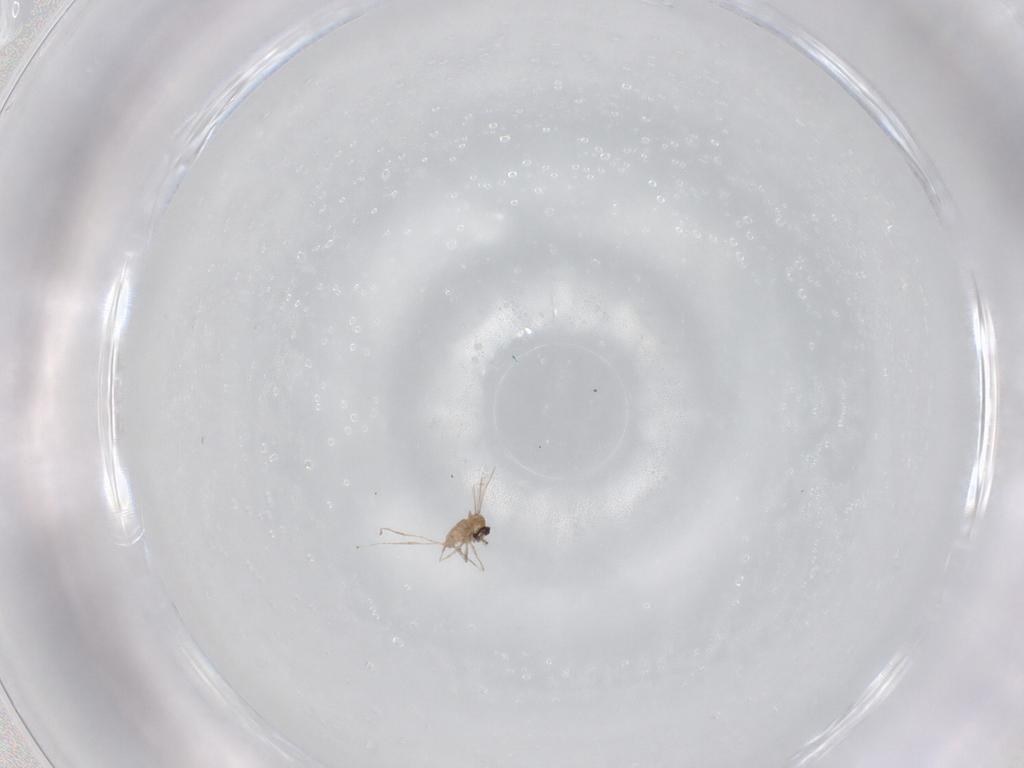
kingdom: Animalia
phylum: Arthropoda
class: Insecta
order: Diptera
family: Cecidomyiidae
